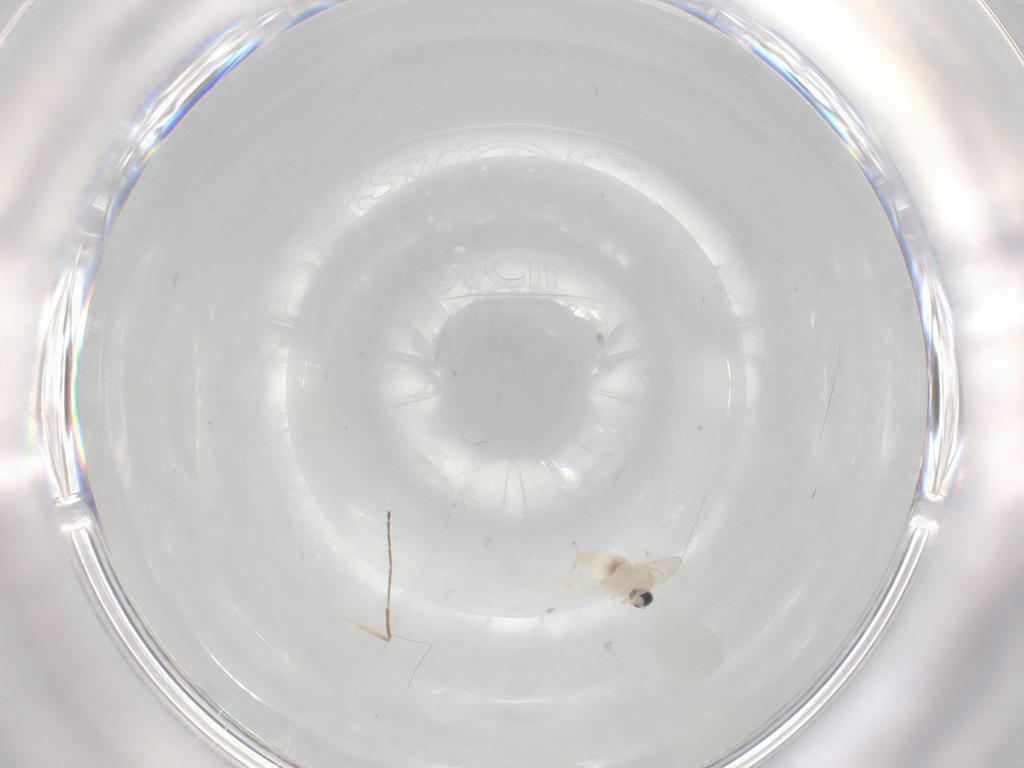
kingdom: Animalia
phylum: Arthropoda
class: Insecta
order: Diptera
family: Cecidomyiidae
